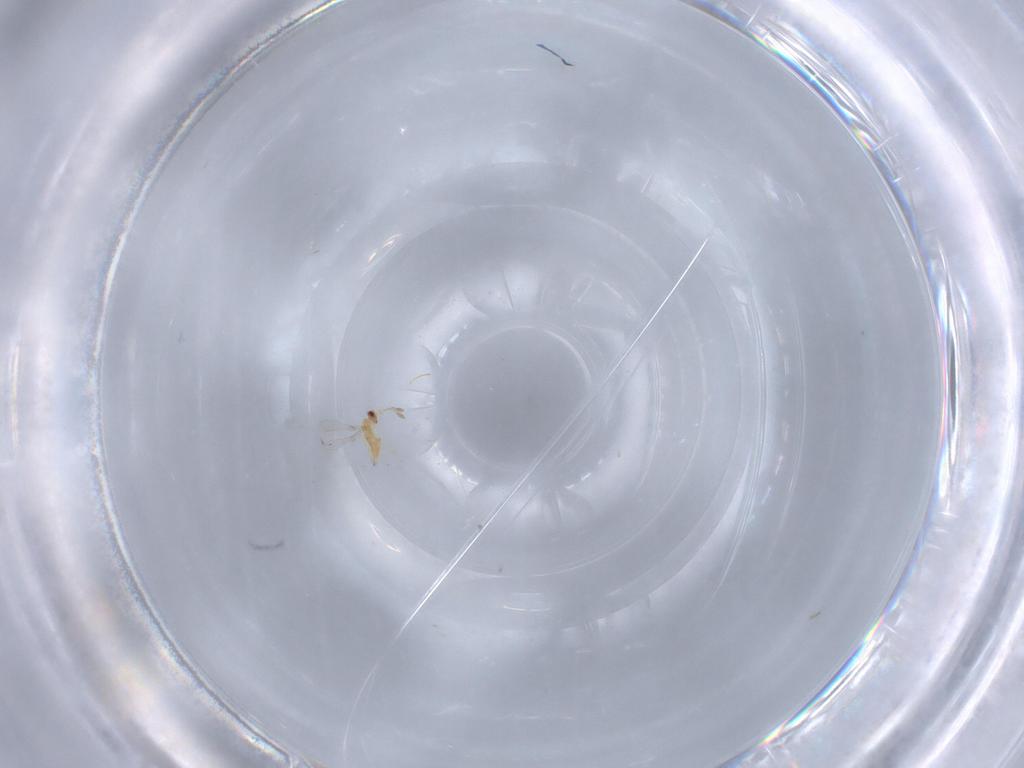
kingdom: Animalia
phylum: Arthropoda
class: Insecta
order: Hymenoptera
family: Mymaridae
